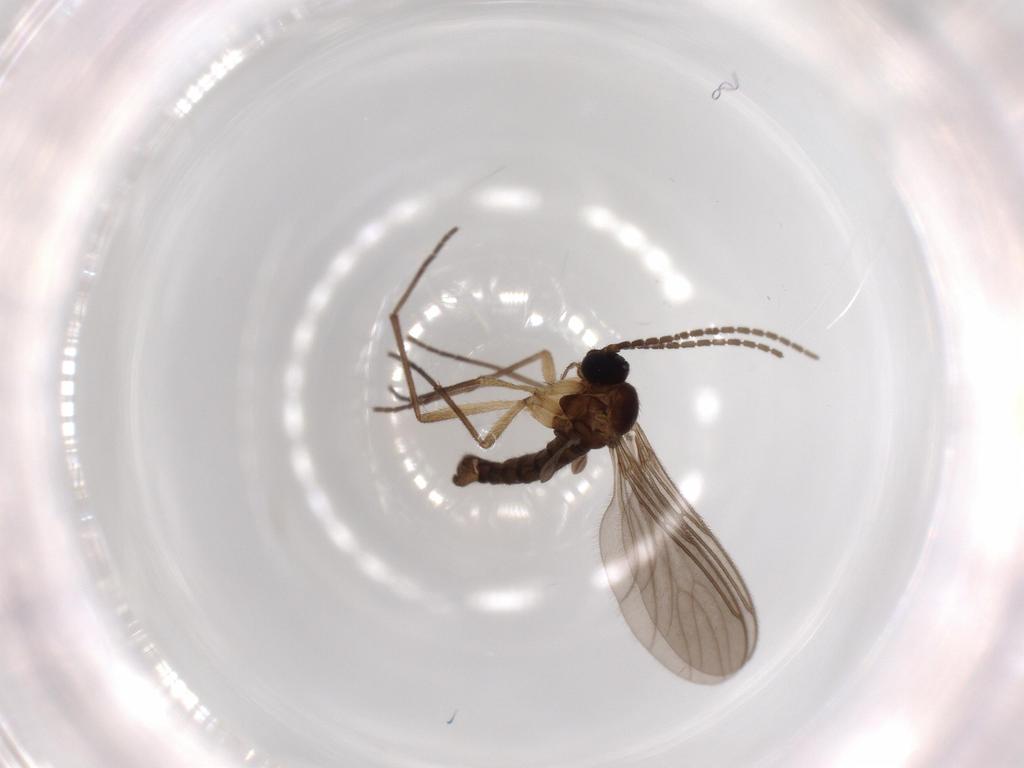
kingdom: Animalia
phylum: Arthropoda
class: Insecta
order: Diptera
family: Sciaridae
